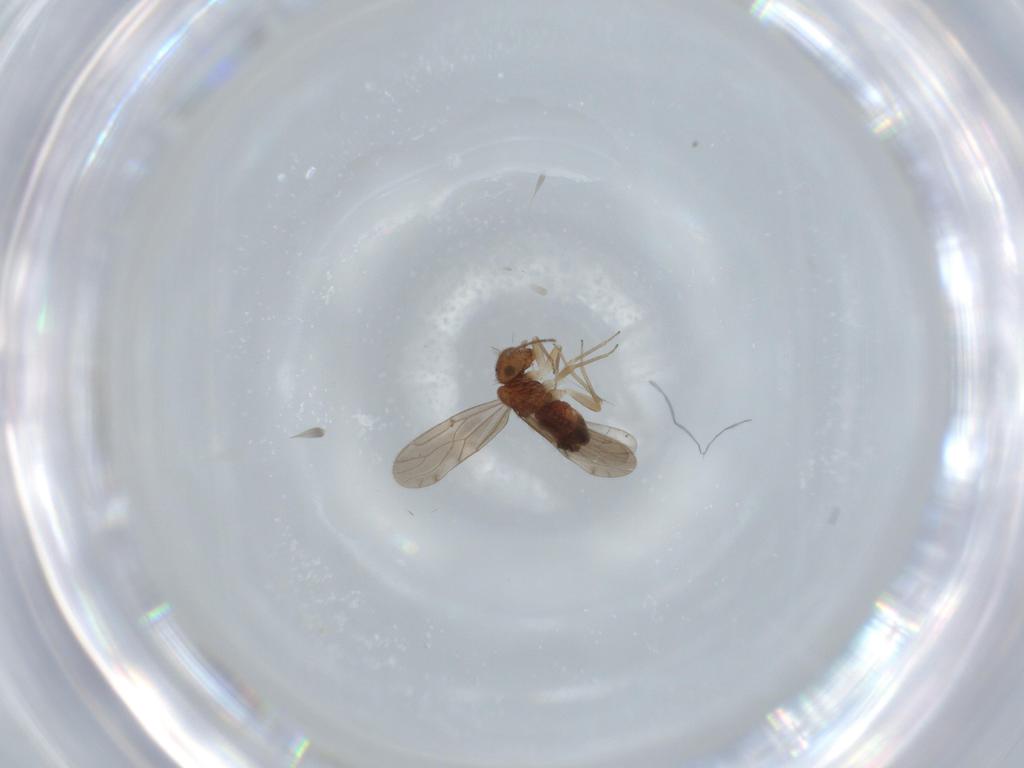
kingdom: Animalia
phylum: Arthropoda
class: Insecta
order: Psocodea
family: Ectopsocidae
